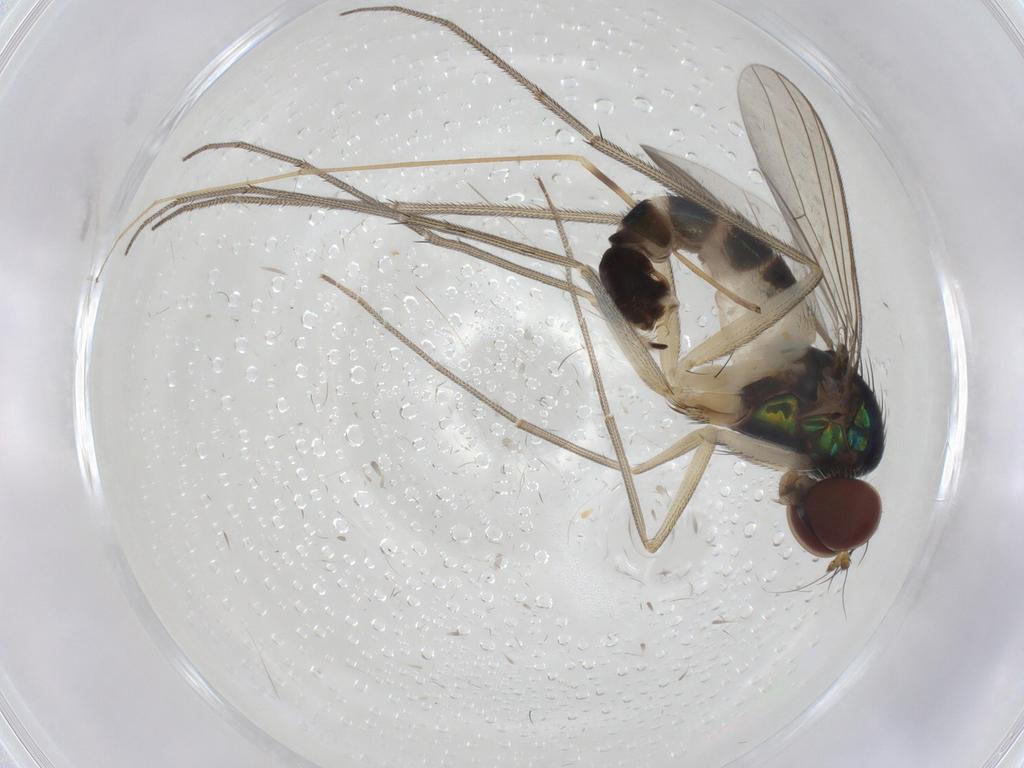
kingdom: Animalia
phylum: Arthropoda
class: Insecta
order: Diptera
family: Dolichopodidae
